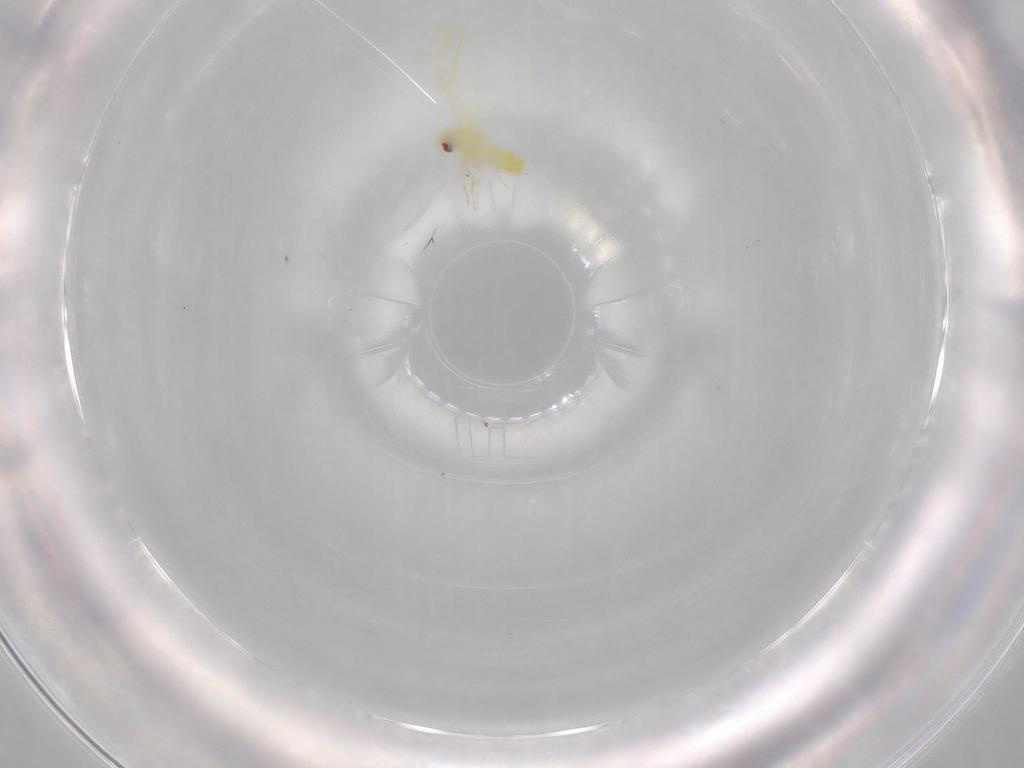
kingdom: Animalia
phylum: Arthropoda
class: Insecta
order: Hemiptera
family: Aleyrodidae
